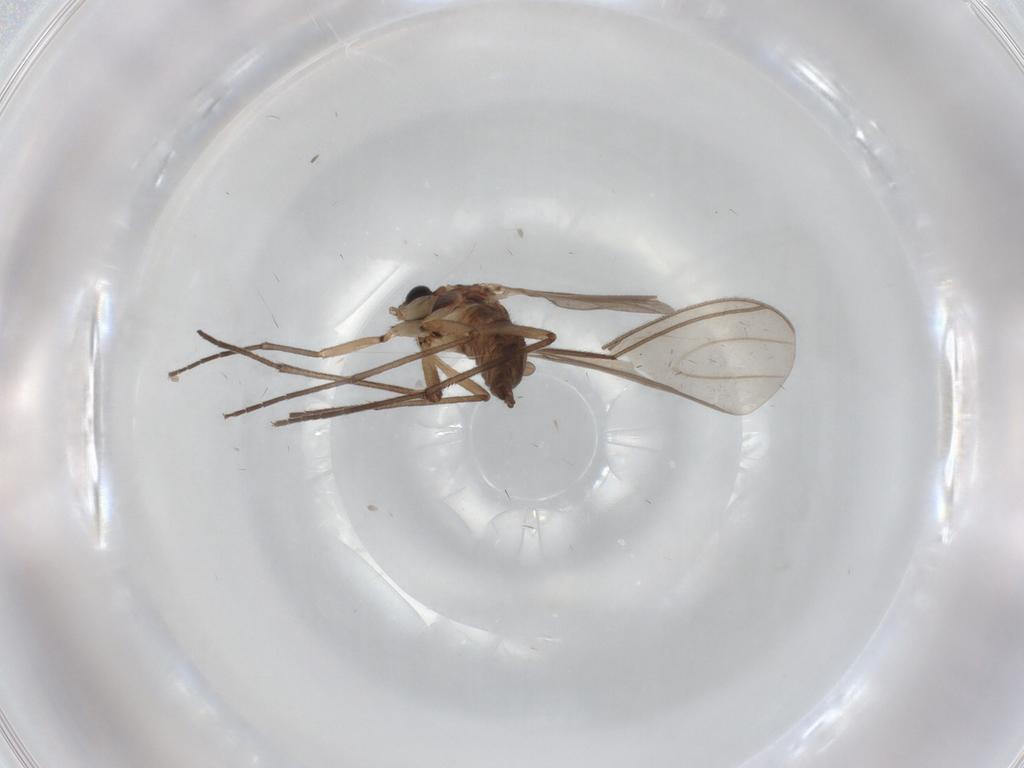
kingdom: Animalia
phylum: Arthropoda
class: Insecta
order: Diptera
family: Sciaridae
